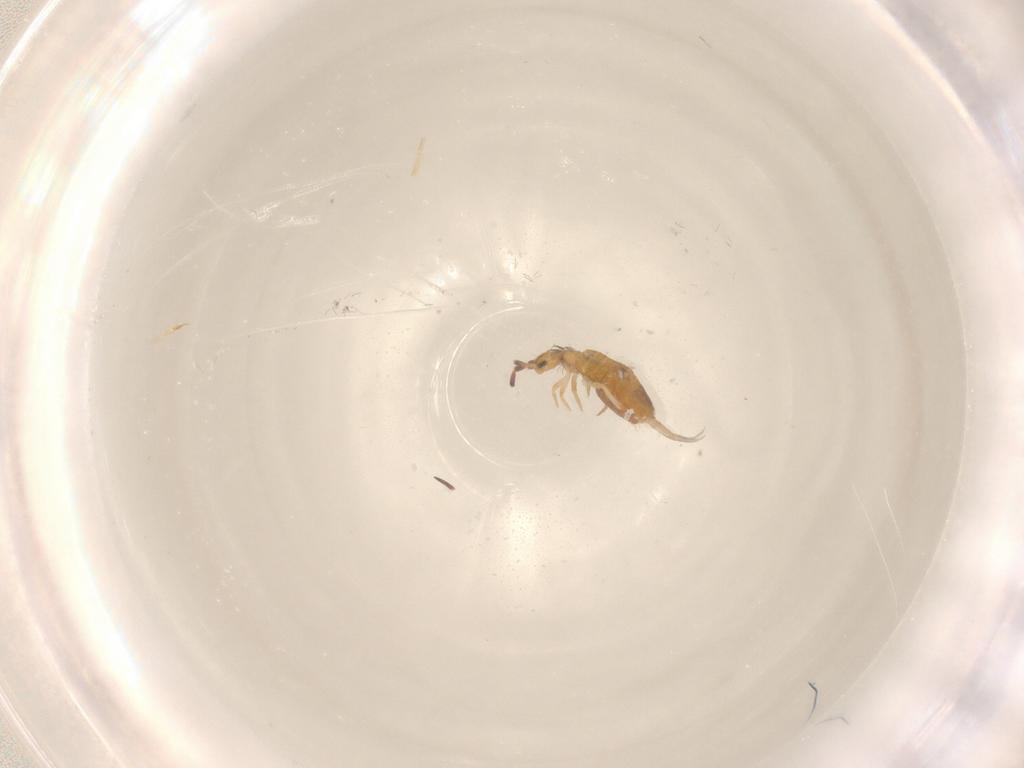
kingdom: Animalia
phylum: Arthropoda
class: Collembola
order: Entomobryomorpha
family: Entomobryidae
